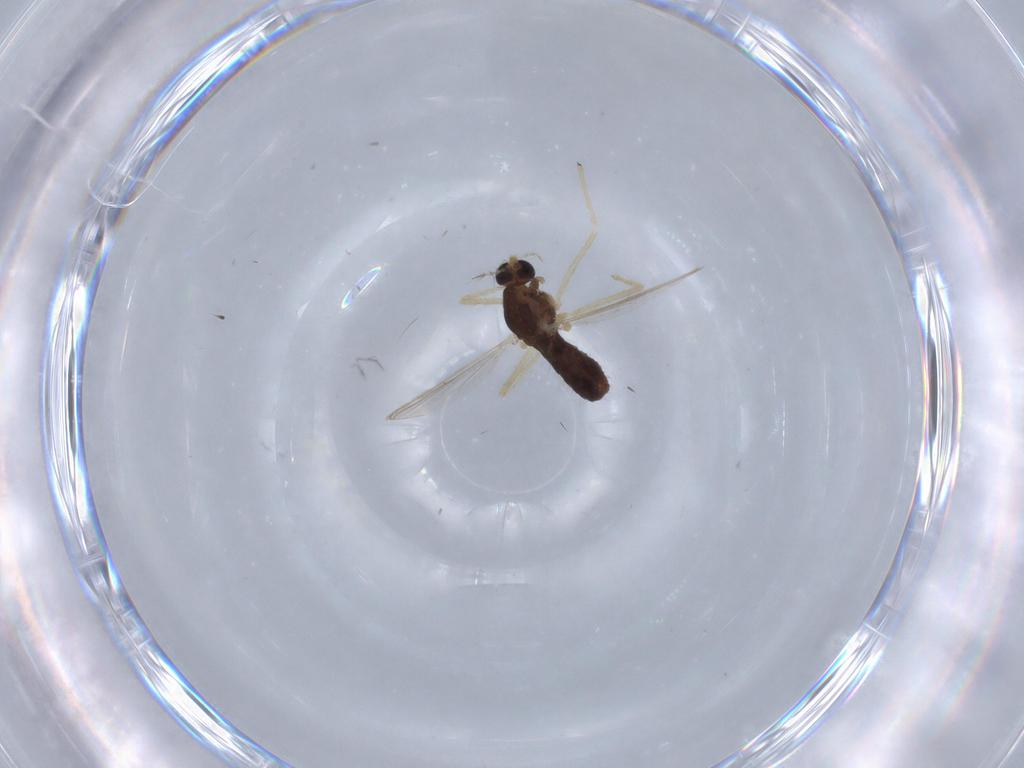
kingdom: Animalia
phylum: Arthropoda
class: Insecta
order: Diptera
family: Chironomidae
